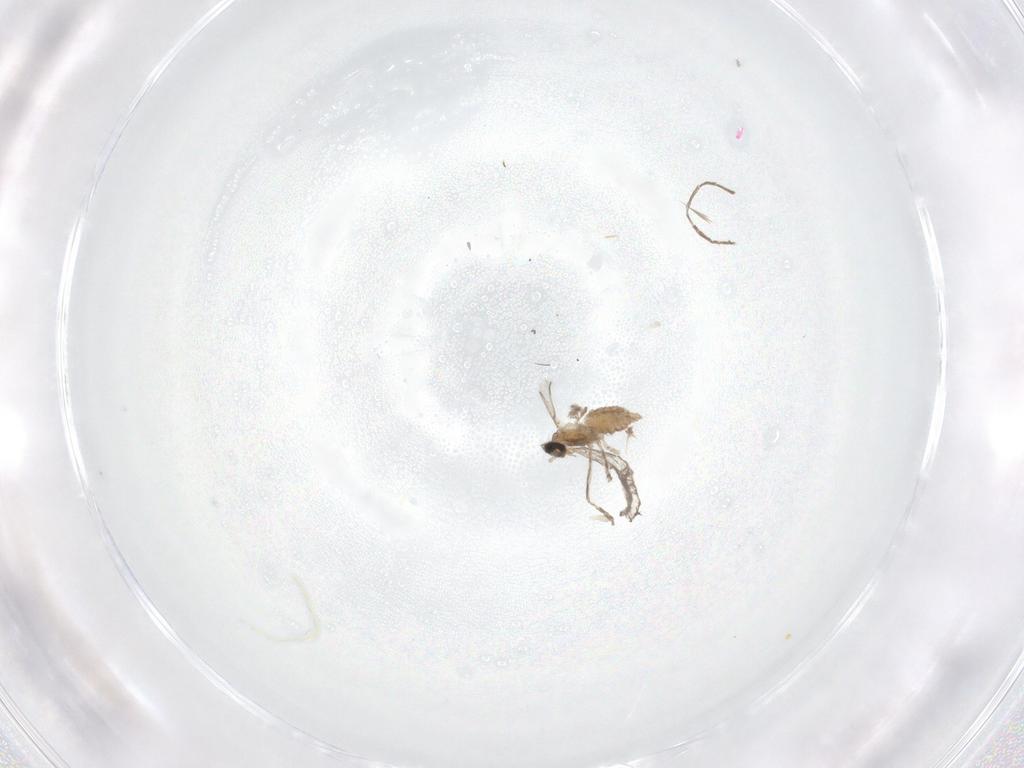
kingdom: Animalia
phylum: Arthropoda
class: Insecta
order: Diptera
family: Cecidomyiidae
